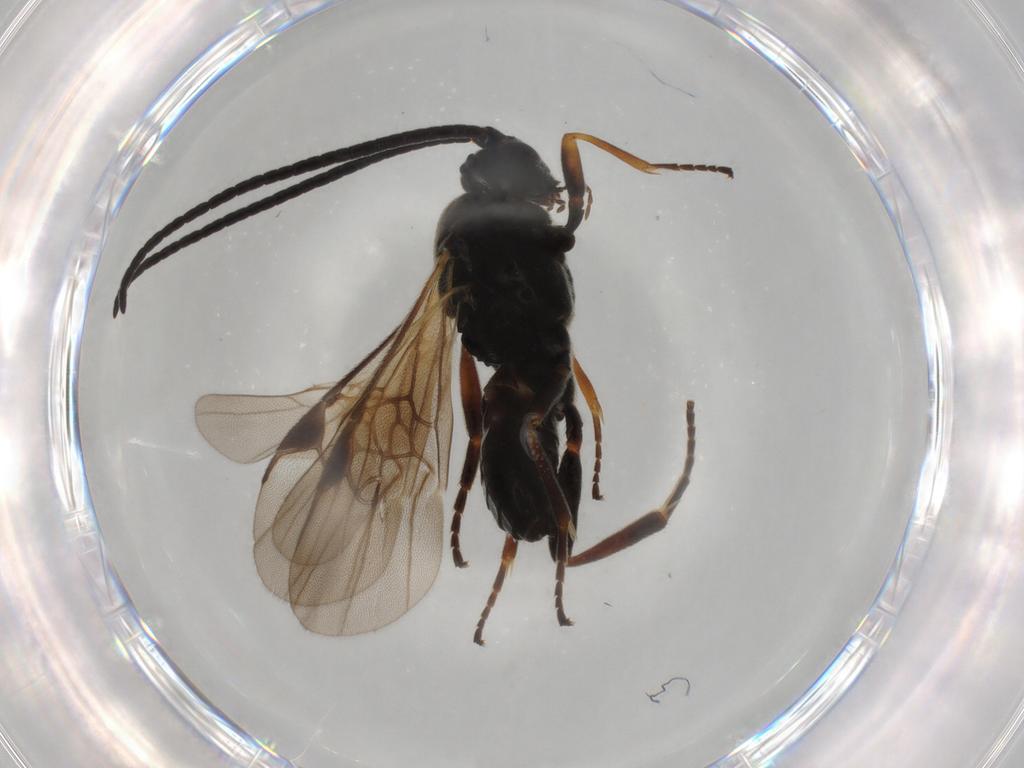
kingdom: Animalia
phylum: Arthropoda
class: Insecta
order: Hymenoptera
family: Braconidae
